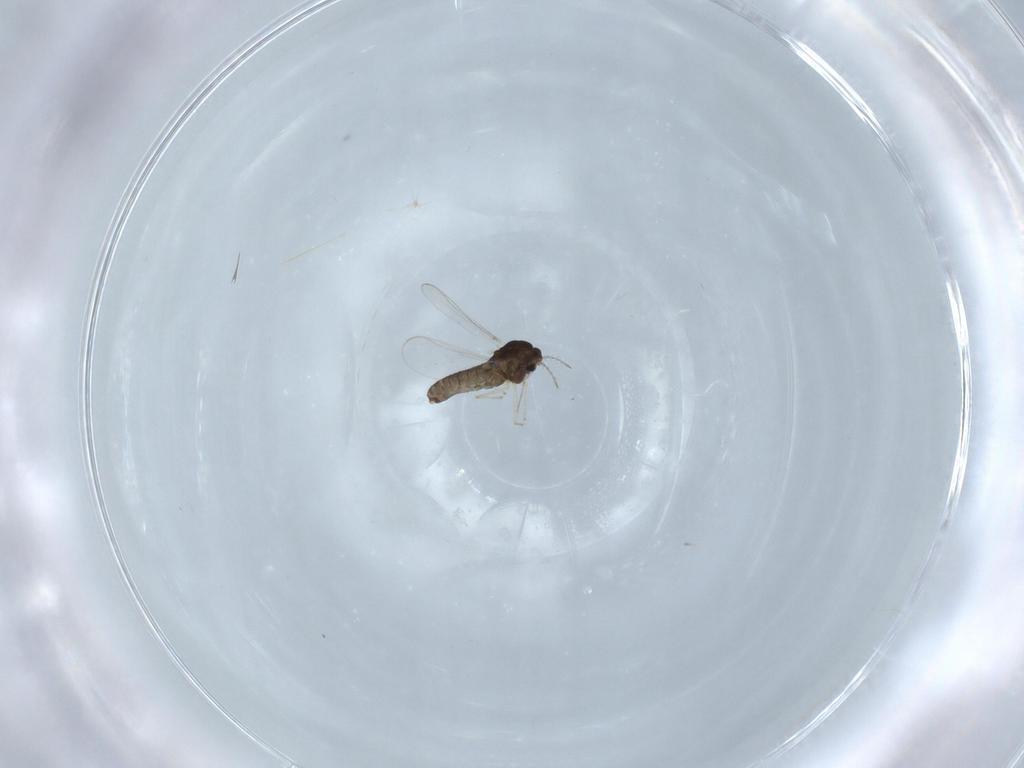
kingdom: Animalia
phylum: Arthropoda
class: Insecta
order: Diptera
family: Chironomidae
